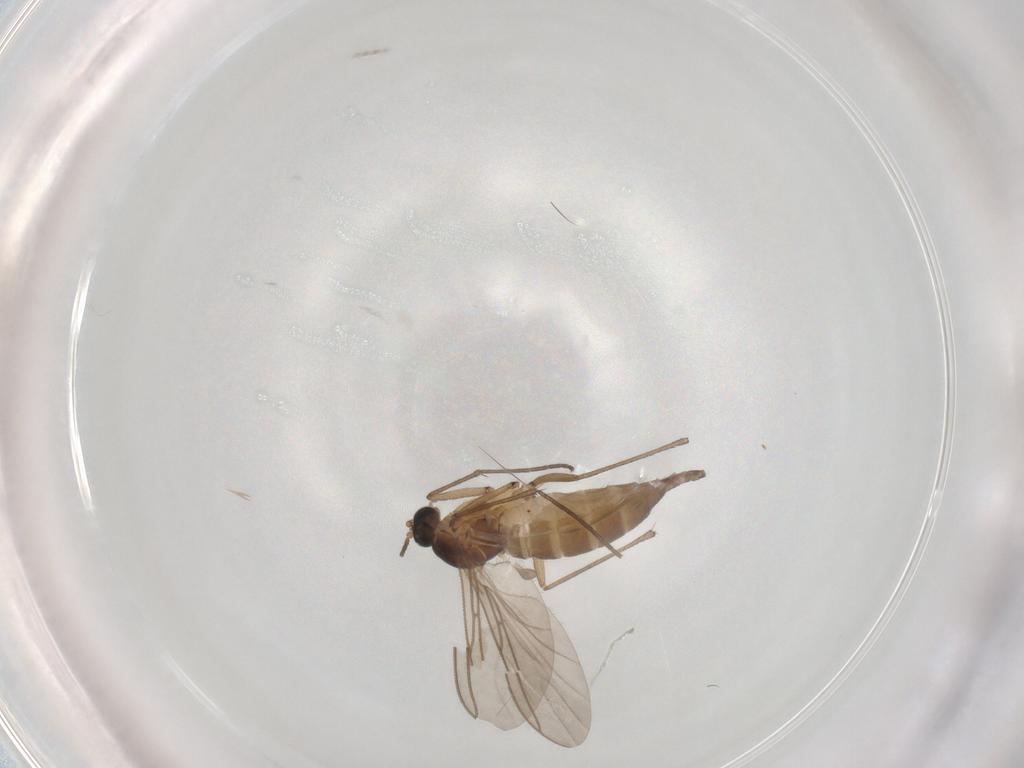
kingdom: Animalia
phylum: Arthropoda
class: Insecta
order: Diptera
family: Sciaridae
